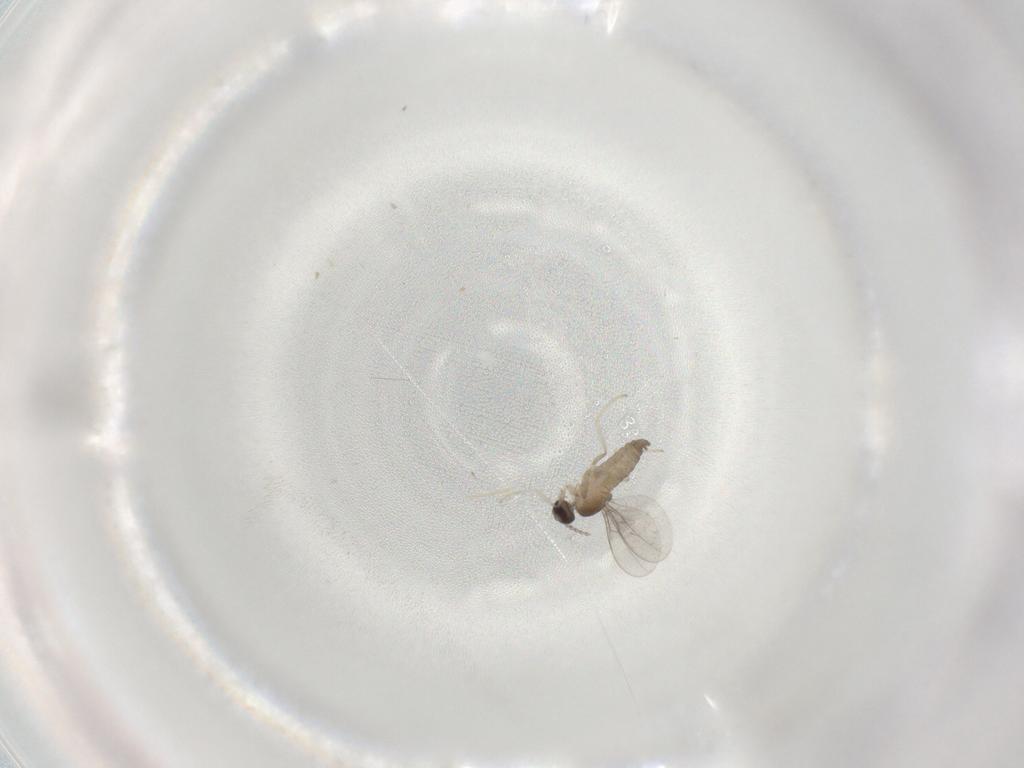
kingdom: Animalia
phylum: Arthropoda
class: Insecta
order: Diptera
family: Cecidomyiidae
